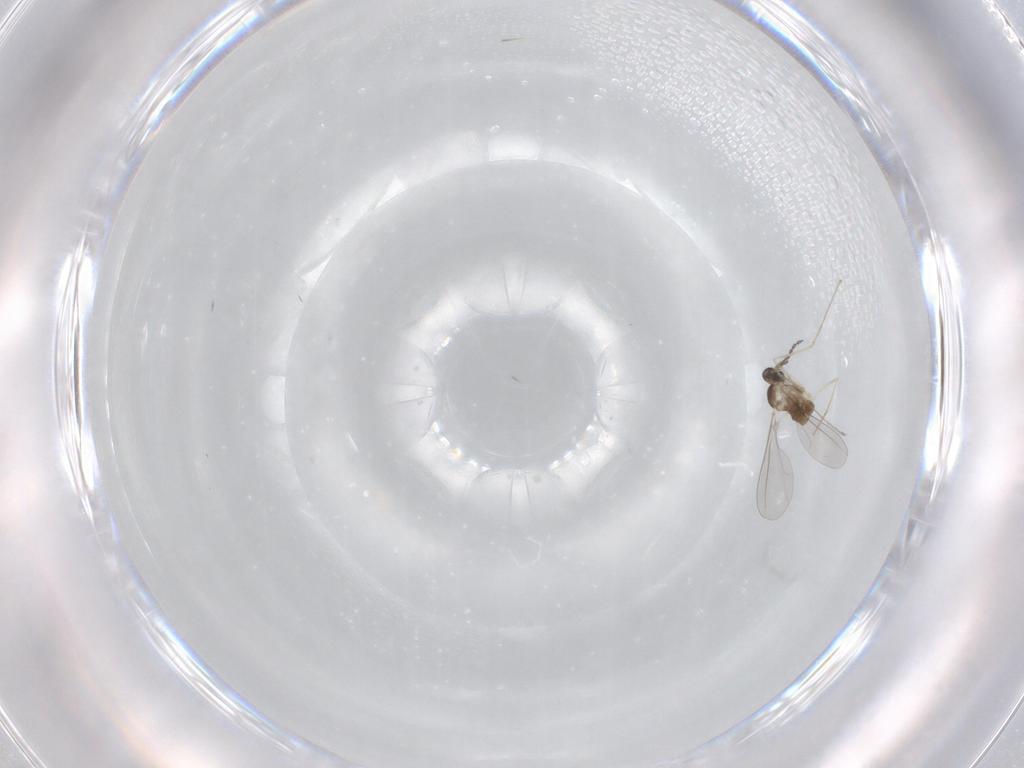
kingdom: Animalia
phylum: Arthropoda
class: Insecta
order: Diptera
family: Cecidomyiidae
